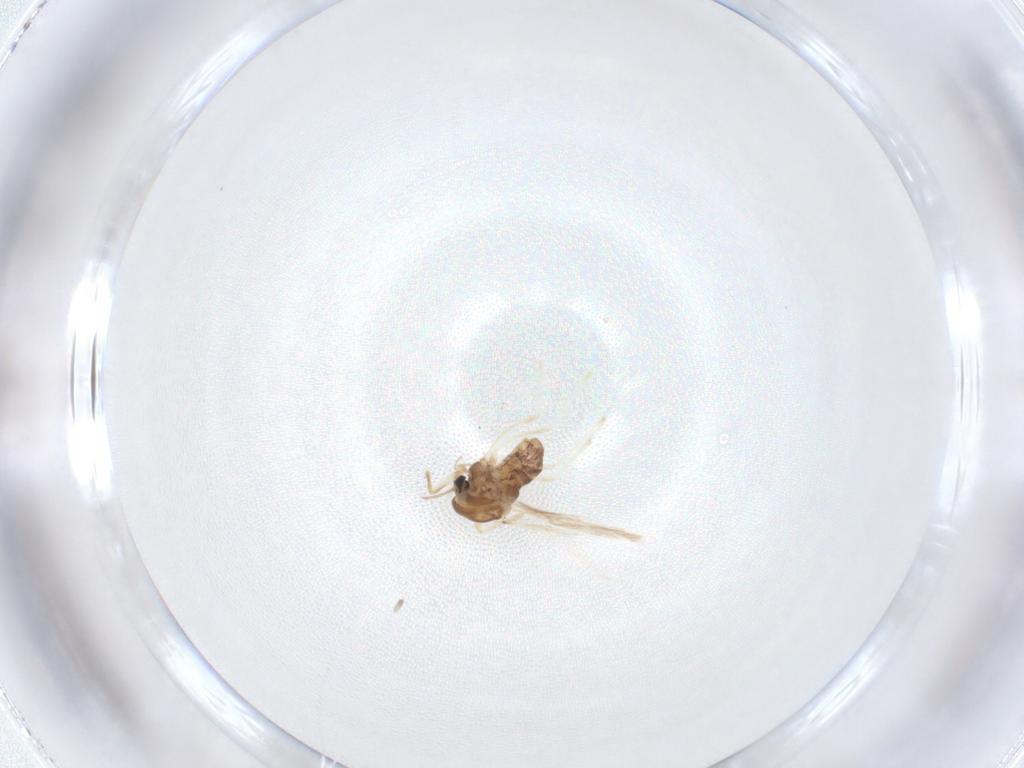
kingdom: Animalia
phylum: Arthropoda
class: Insecta
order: Diptera
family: Chironomidae
